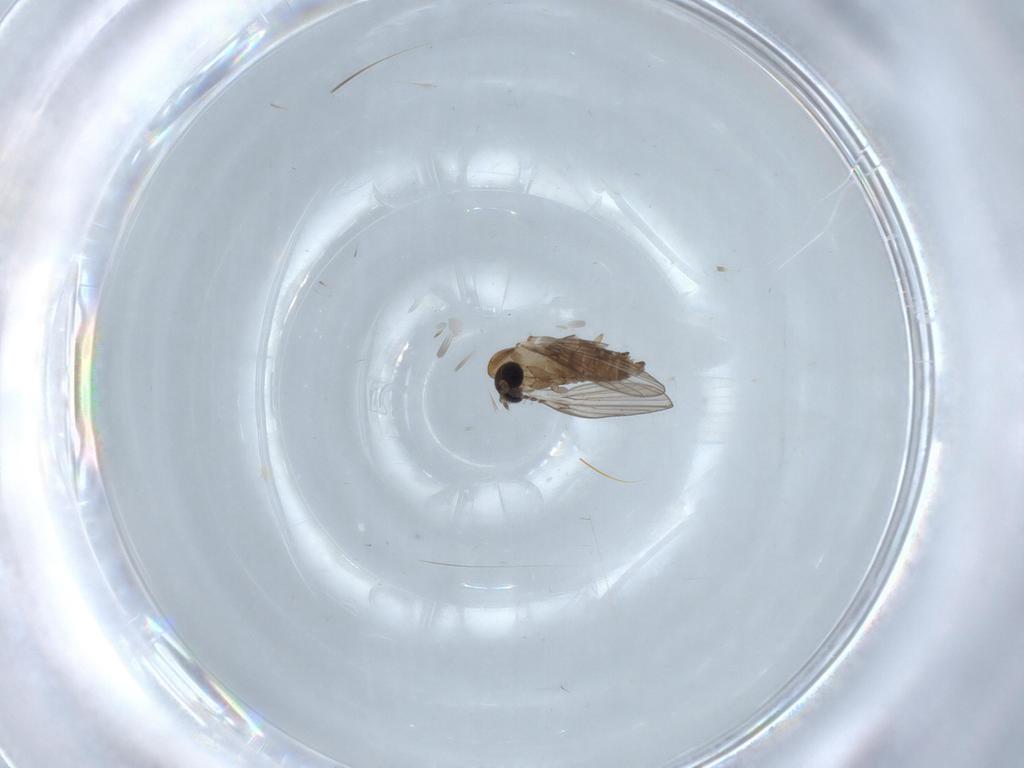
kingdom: Animalia
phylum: Arthropoda
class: Insecta
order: Diptera
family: Psychodidae
